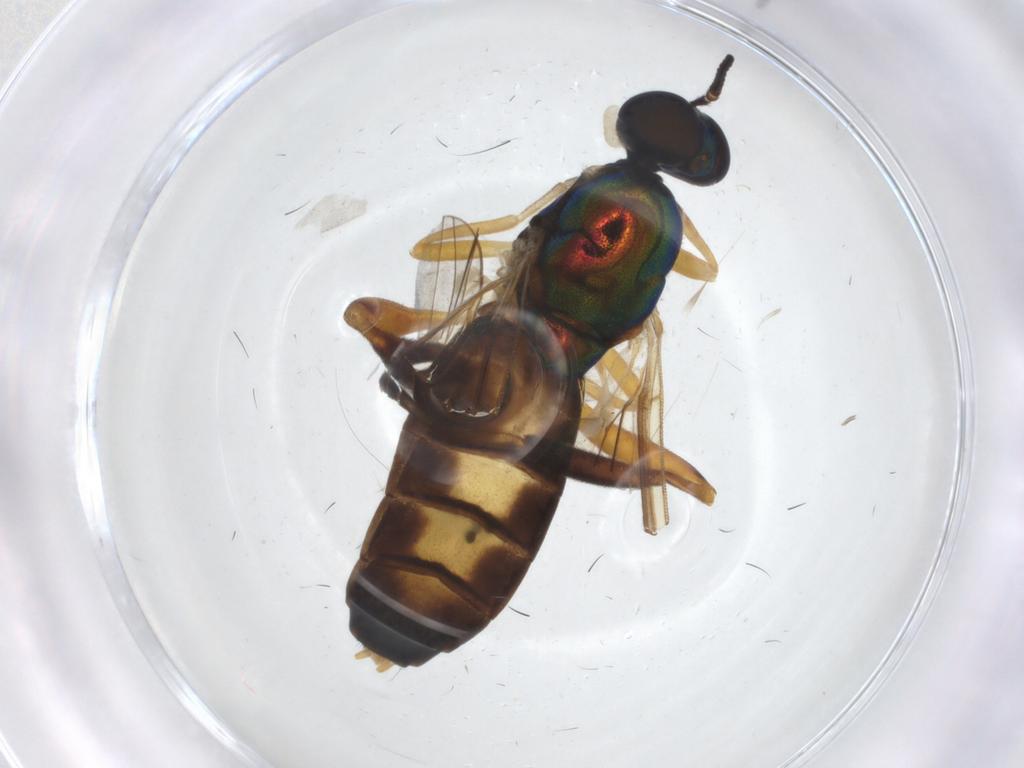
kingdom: Animalia
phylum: Arthropoda
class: Insecta
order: Diptera
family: Stratiomyidae
